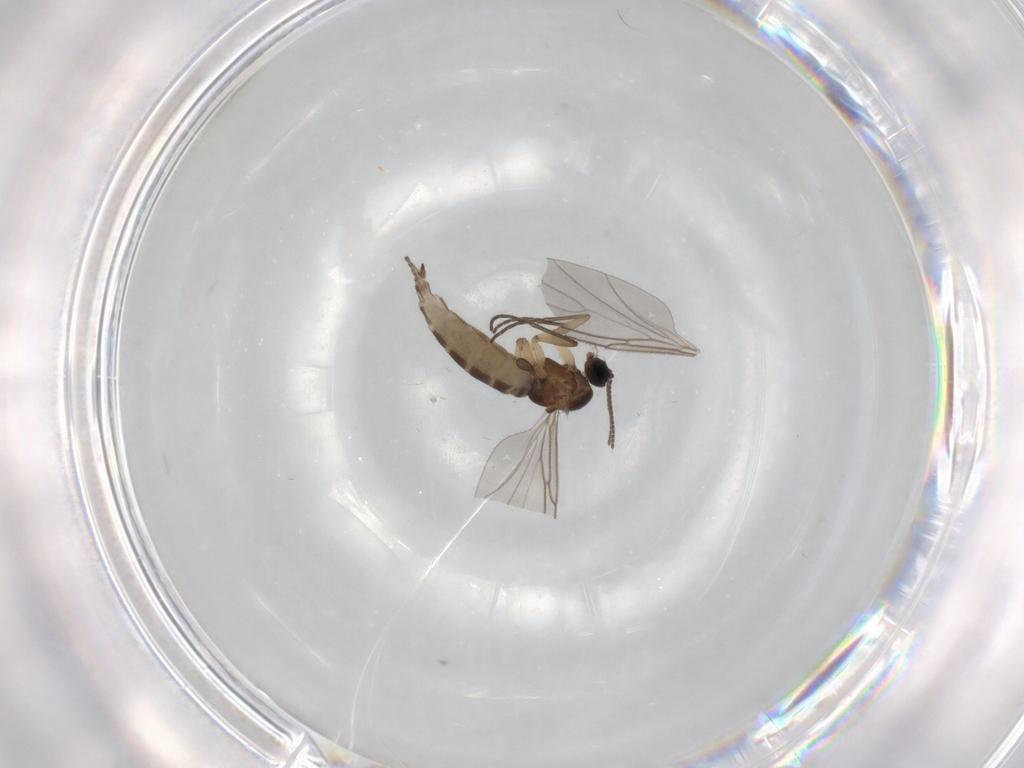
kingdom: Animalia
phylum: Arthropoda
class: Insecta
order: Diptera
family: Sciaridae
